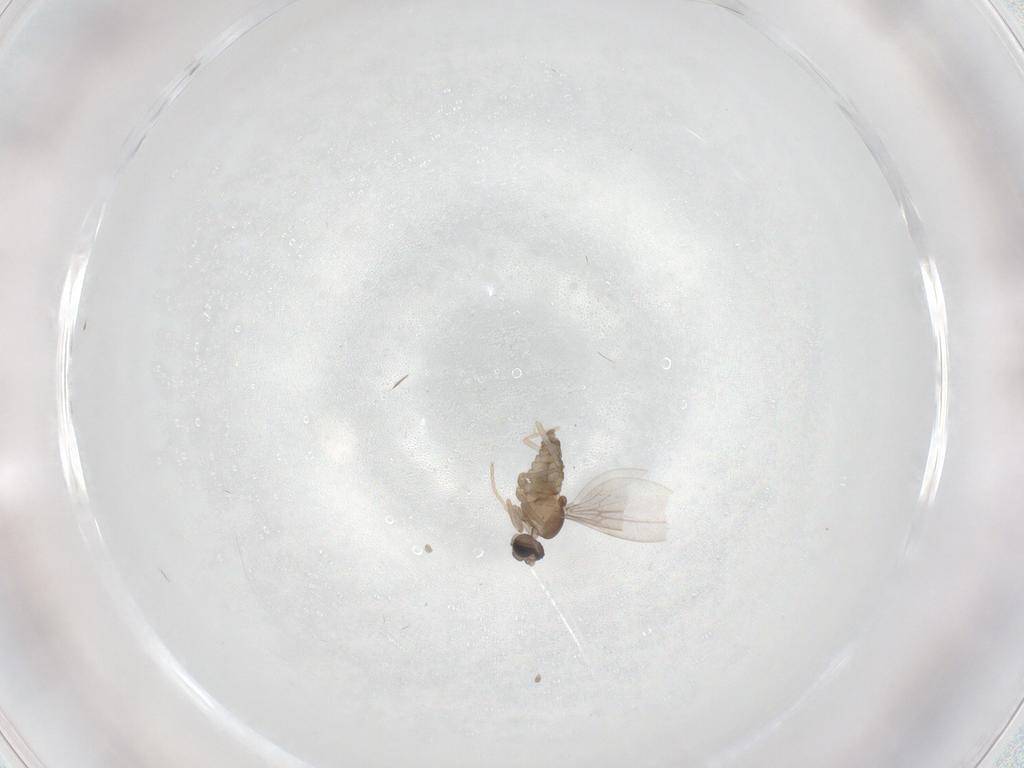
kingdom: Animalia
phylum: Arthropoda
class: Insecta
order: Diptera
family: Cecidomyiidae
